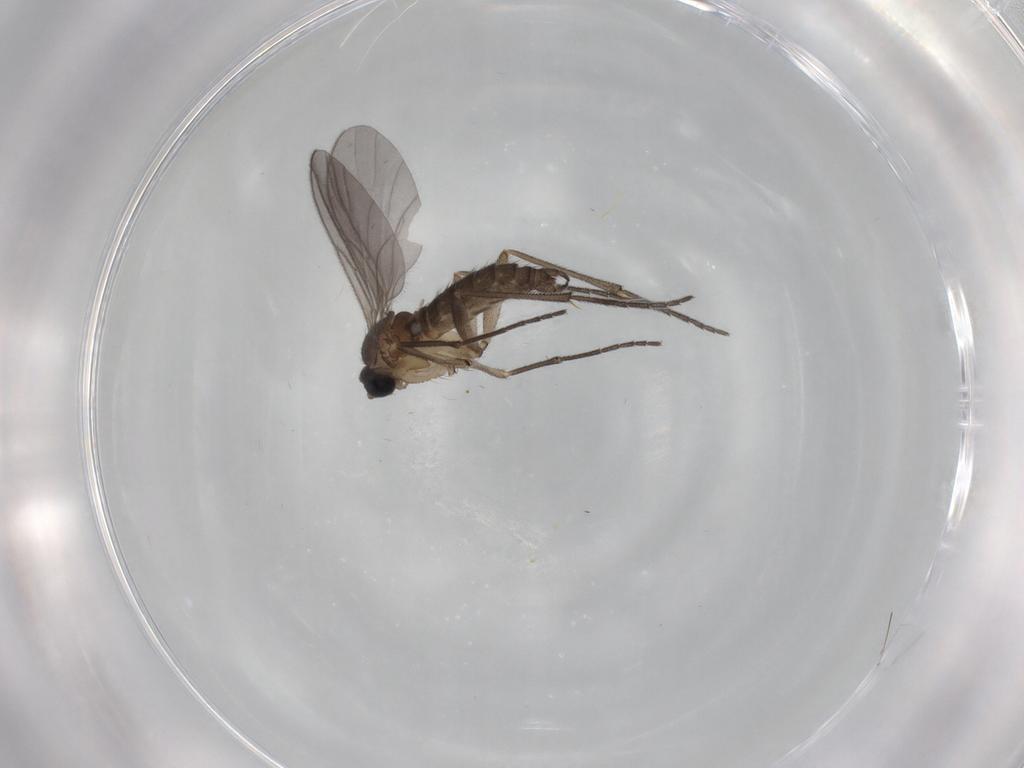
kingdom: Animalia
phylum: Arthropoda
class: Insecta
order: Diptera
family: Sciaridae
